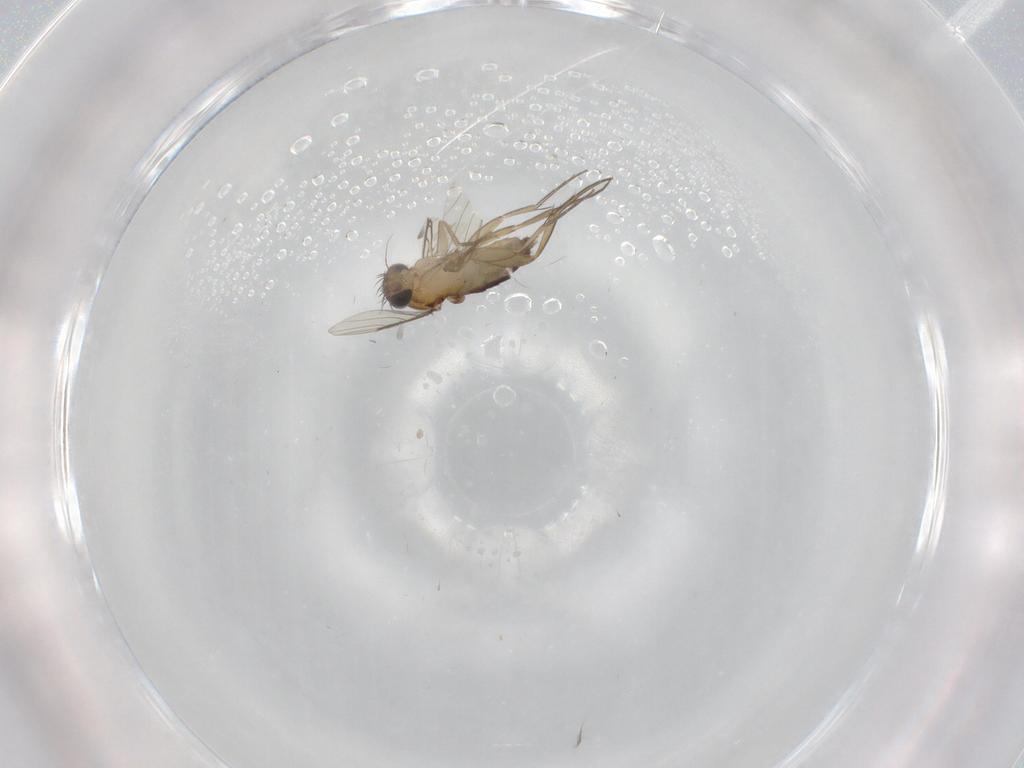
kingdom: Animalia
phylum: Arthropoda
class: Insecta
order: Diptera
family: Phoridae
